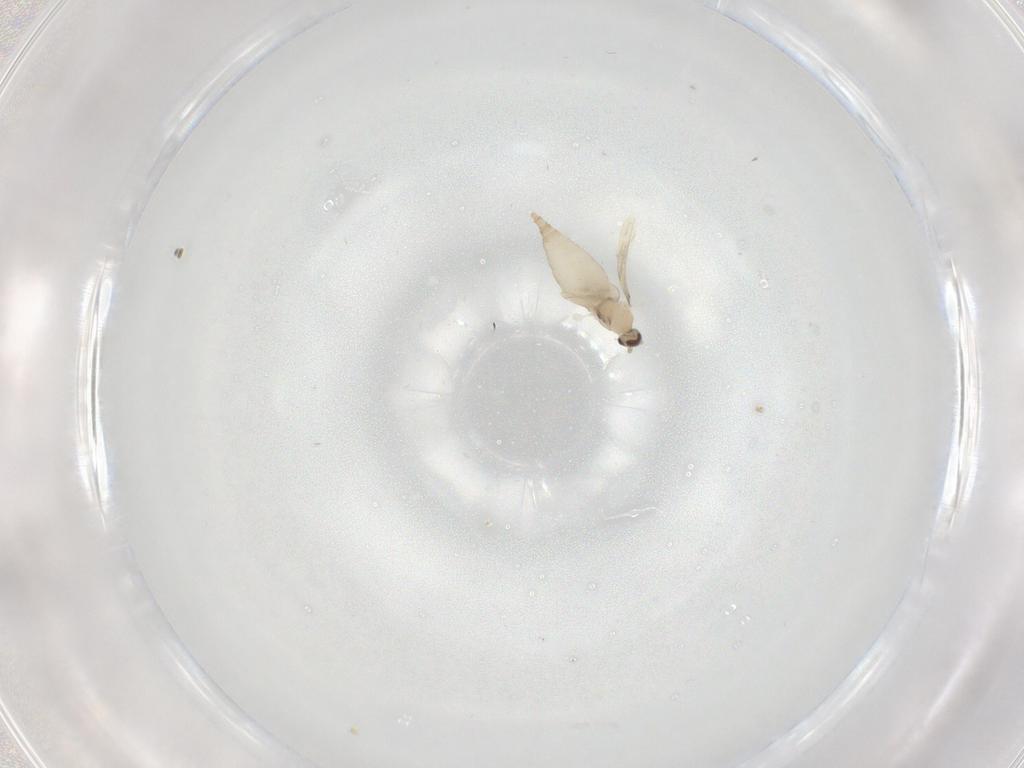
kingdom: Animalia
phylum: Arthropoda
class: Insecta
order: Diptera
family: Cecidomyiidae
